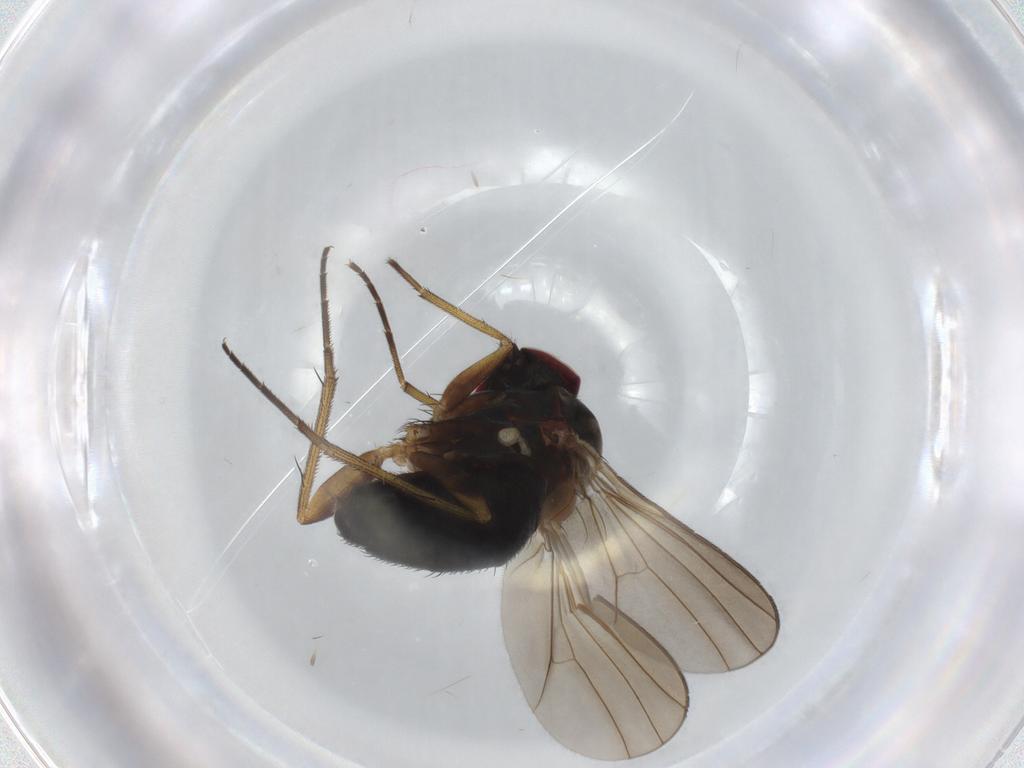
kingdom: Animalia
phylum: Arthropoda
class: Insecta
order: Diptera
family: Dolichopodidae
